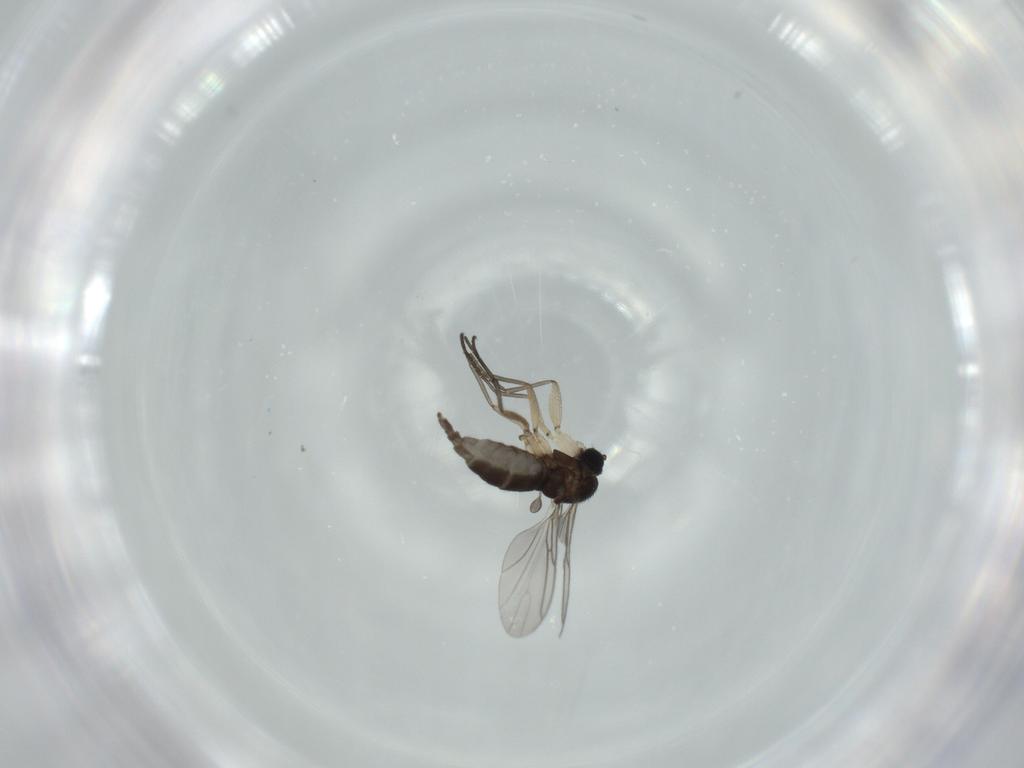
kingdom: Animalia
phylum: Arthropoda
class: Insecta
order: Diptera
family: Sciaridae
